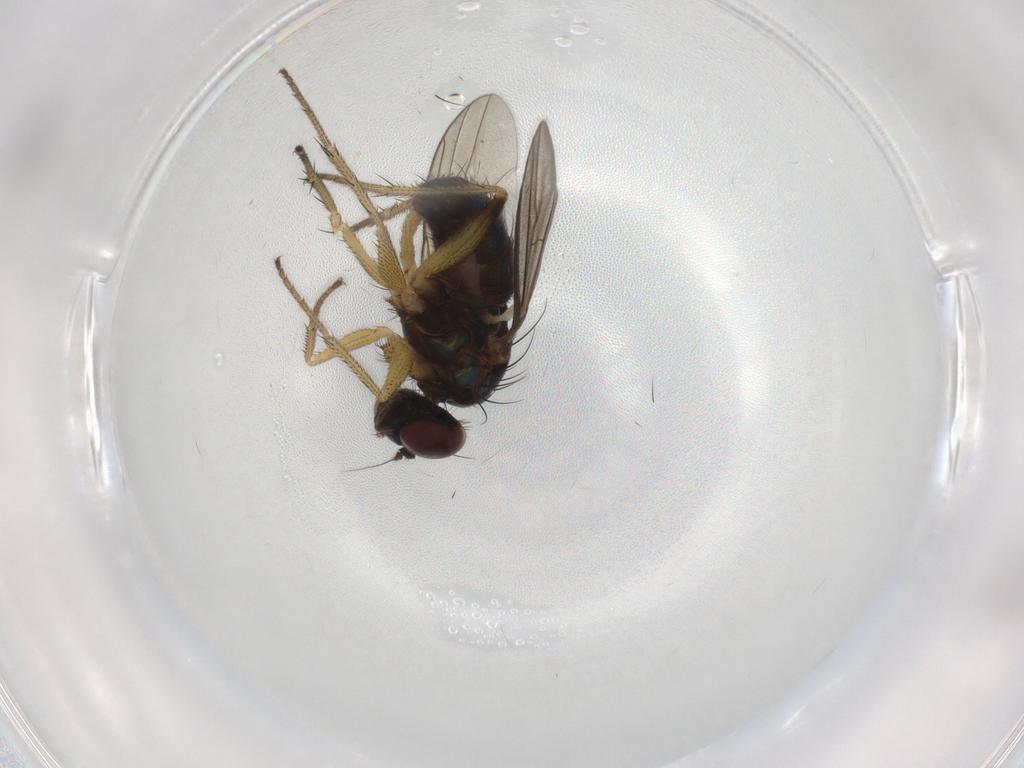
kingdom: Animalia
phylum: Arthropoda
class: Insecta
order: Diptera
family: Dolichopodidae
